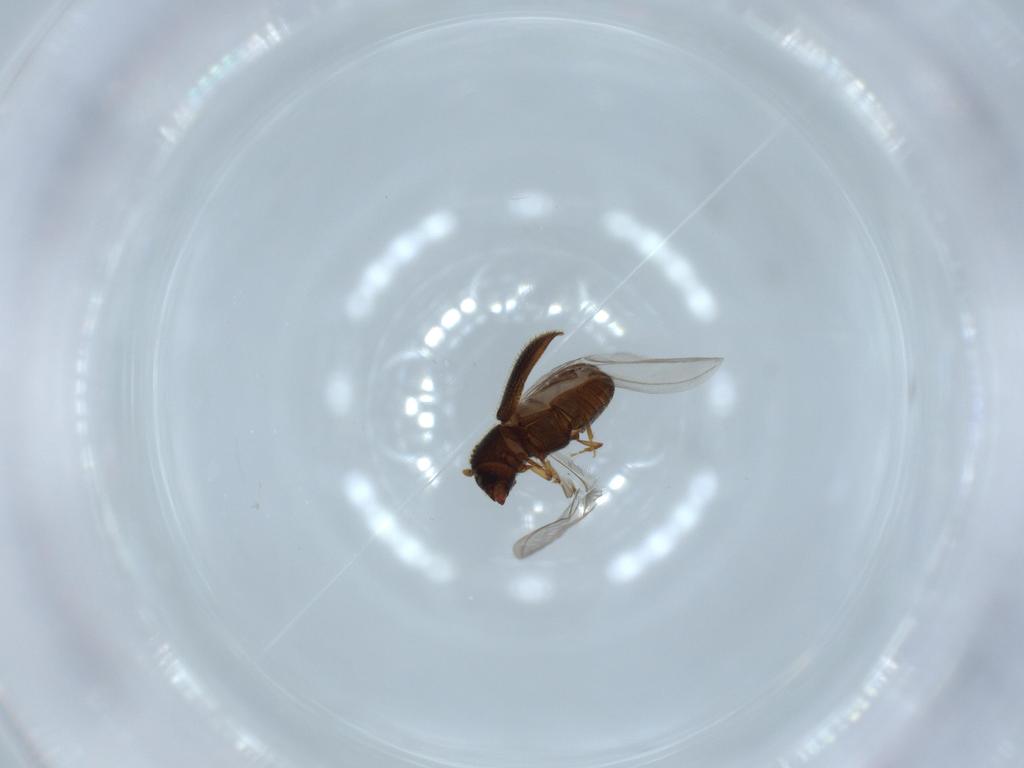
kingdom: Animalia
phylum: Arthropoda
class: Insecta
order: Coleoptera
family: Curculionidae
